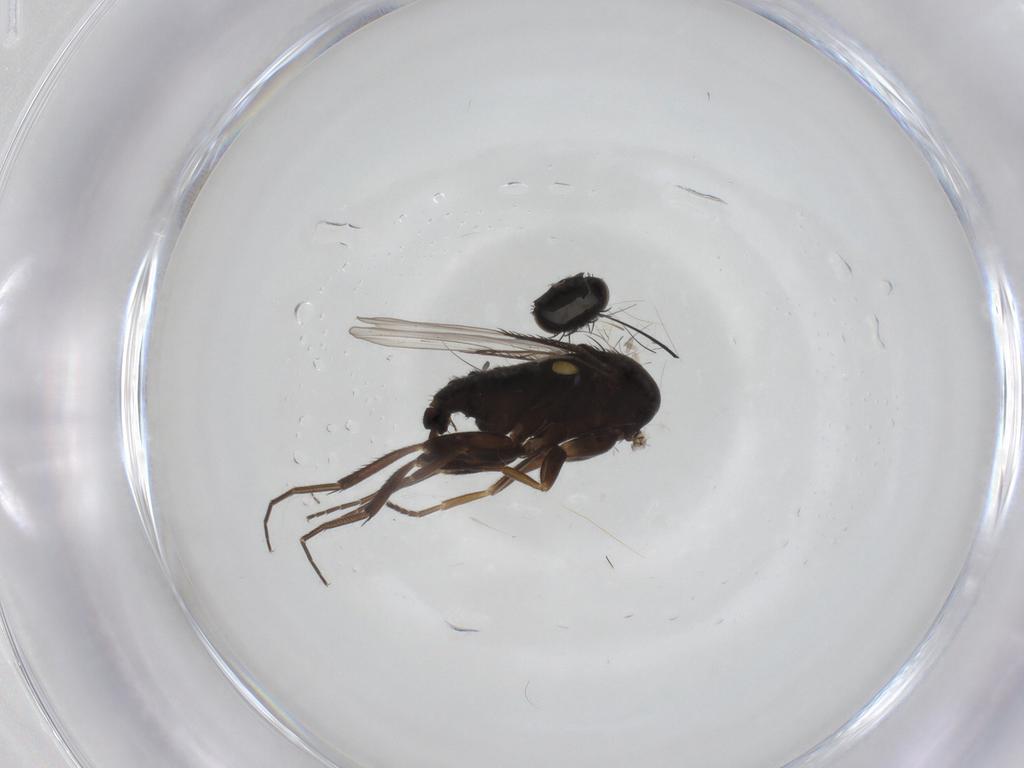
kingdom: Animalia
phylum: Arthropoda
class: Insecta
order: Diptera
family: Phoridae
